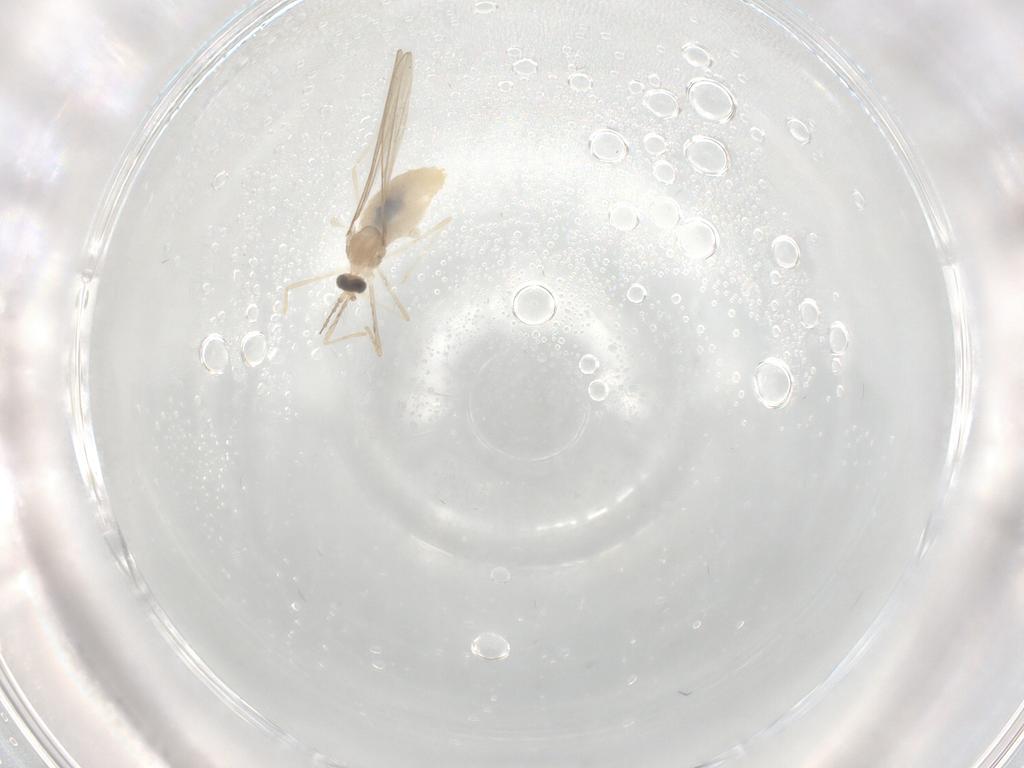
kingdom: Animalia
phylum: Arthropoda
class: Insecta
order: Diptera
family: Cecidomyiidae
